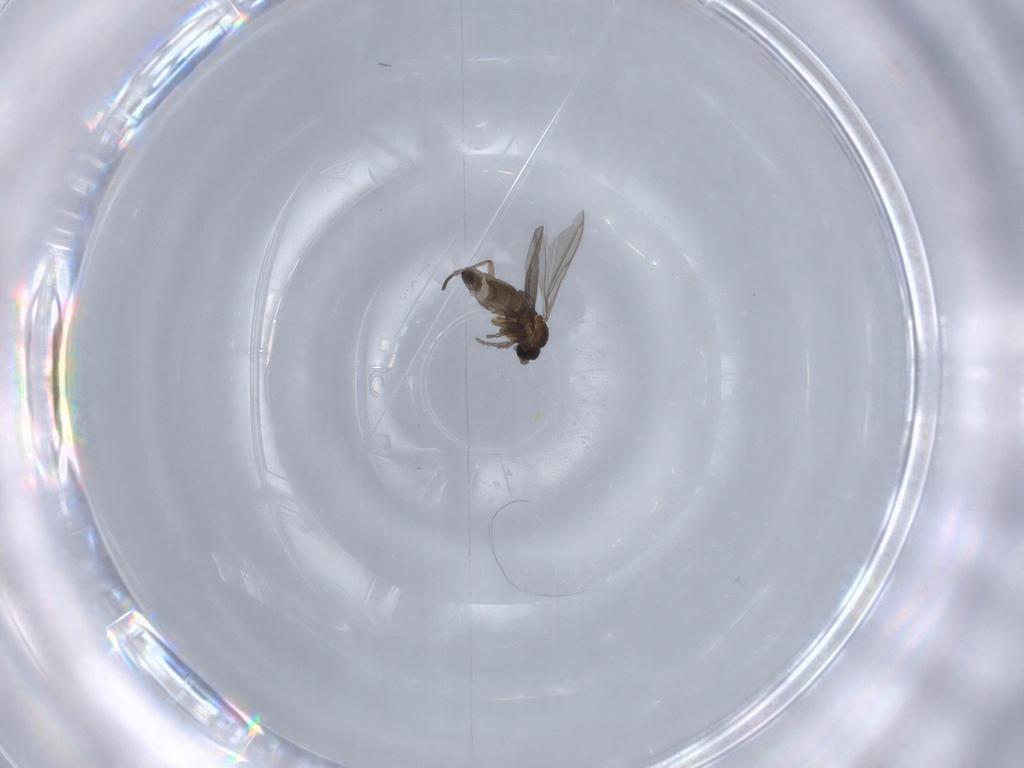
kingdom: Animalia
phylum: Arthropoda
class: Insecta
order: Diptera
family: Sciaridae
